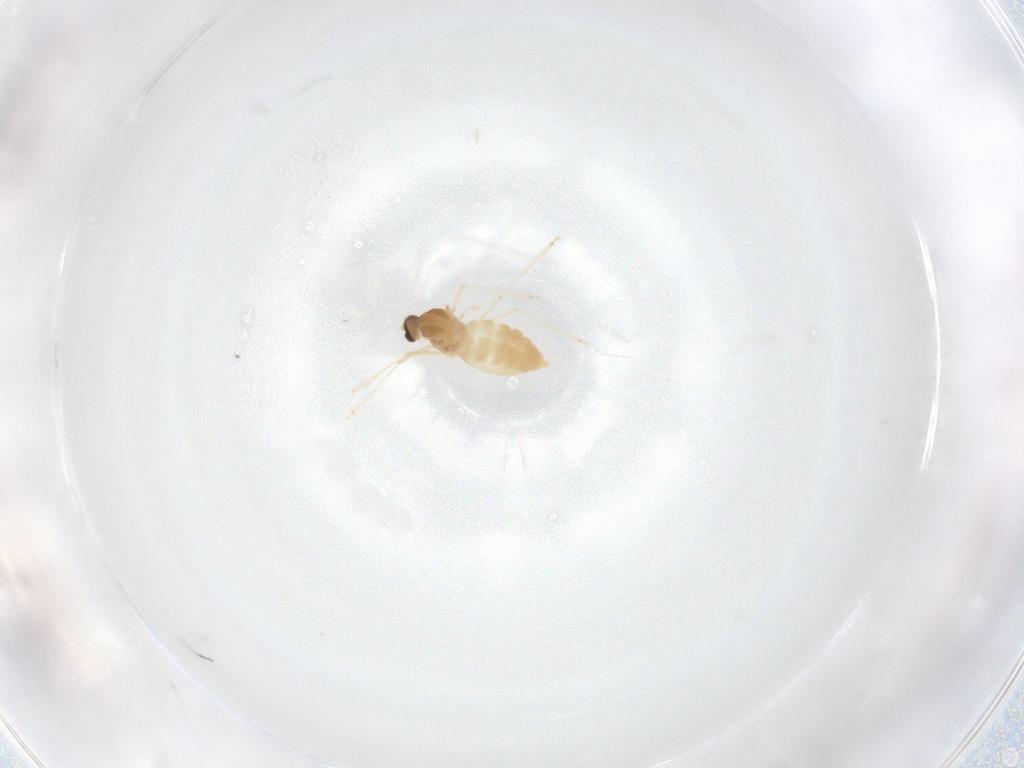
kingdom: Animalia
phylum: Arthropoda
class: Insecta
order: Diptera
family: Cecidomyiidae
